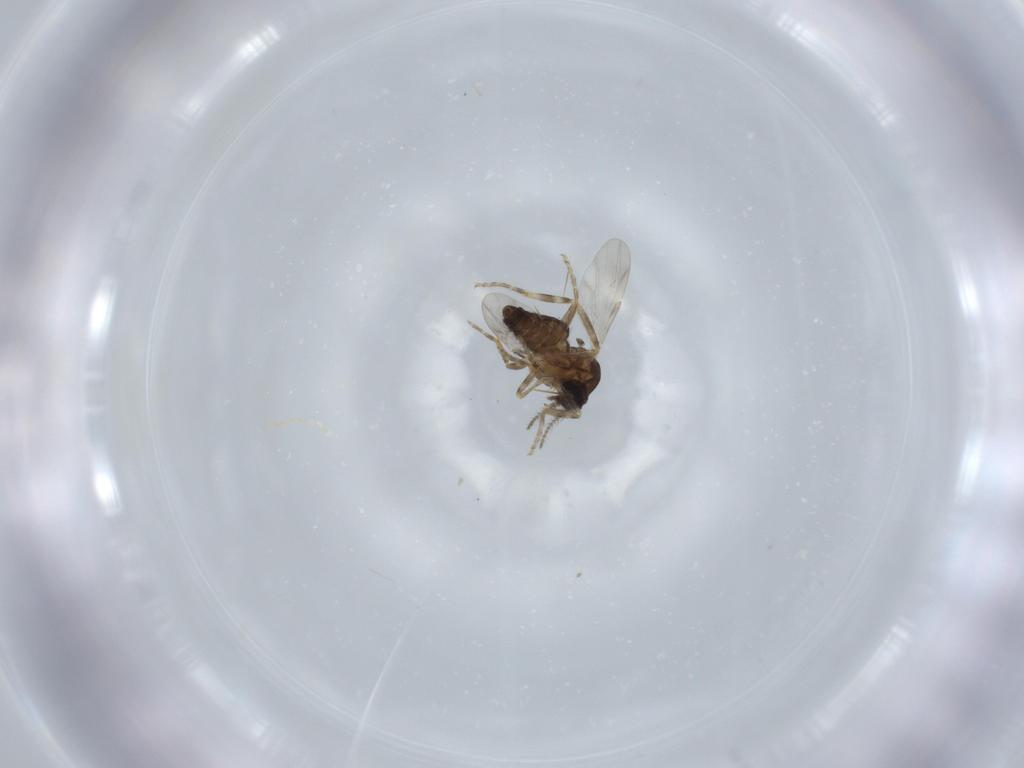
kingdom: Animalia
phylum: Arthropoda
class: Insecta
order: Diptera
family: Ceratopogonidae
